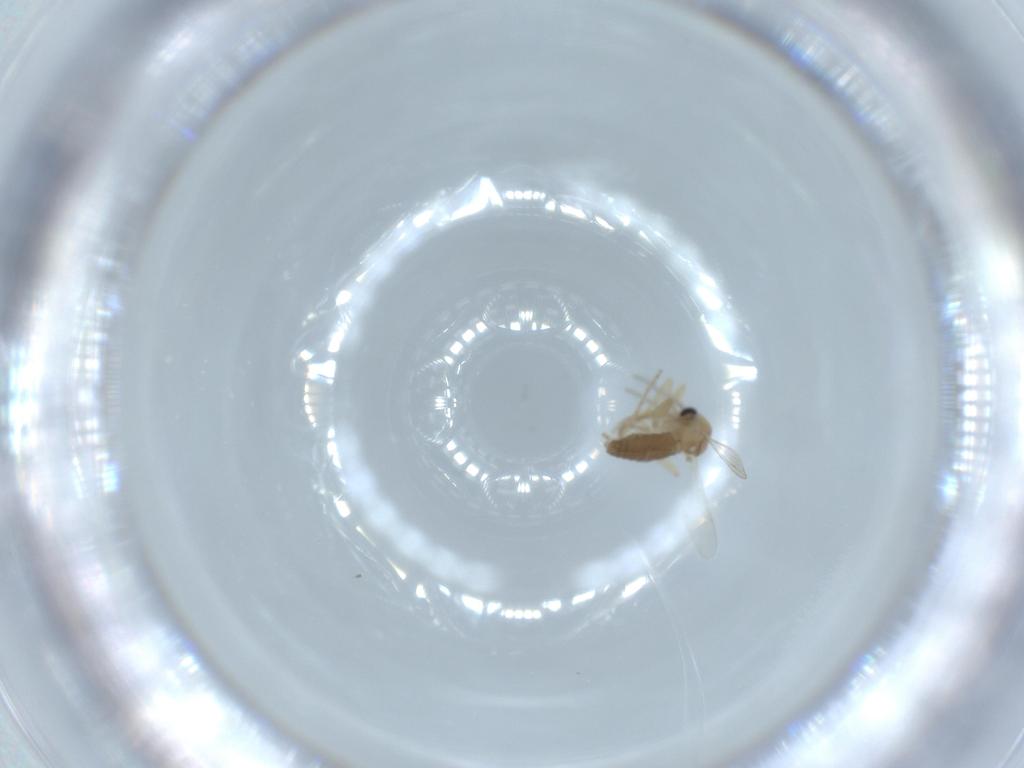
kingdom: Animalia
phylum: Arthropoda
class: Insecta
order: Diptera
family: Ceratopogonidae
